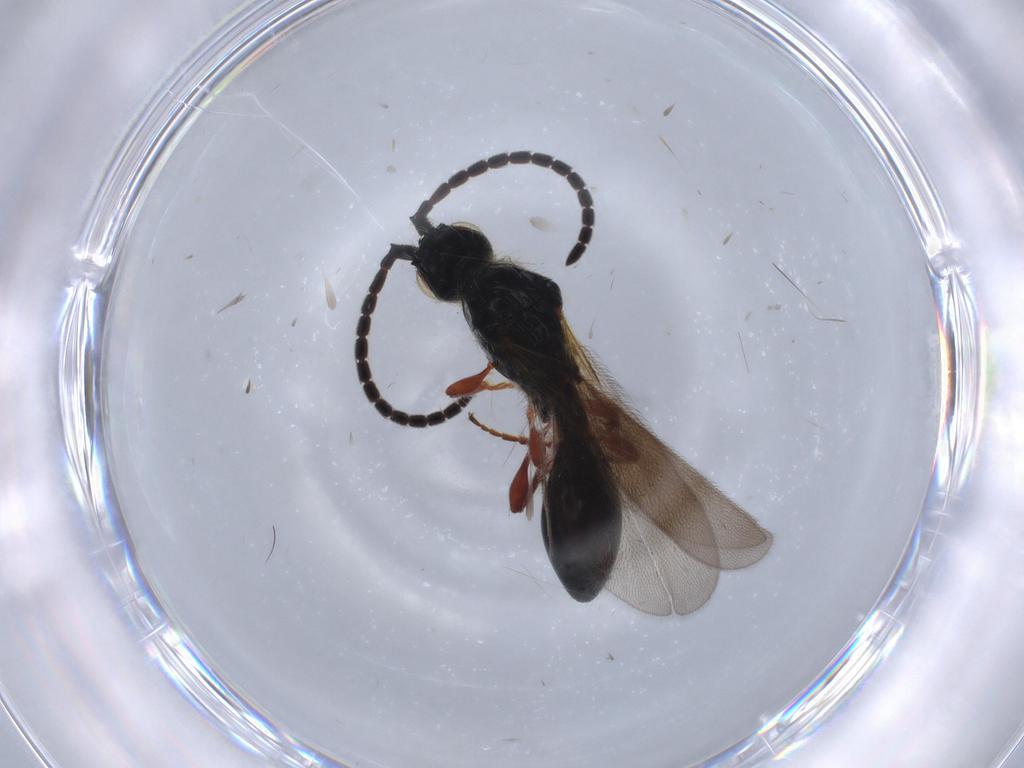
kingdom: Animalia
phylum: Arthropoda
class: Insecta
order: Hymenoptera
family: Diapriidae
